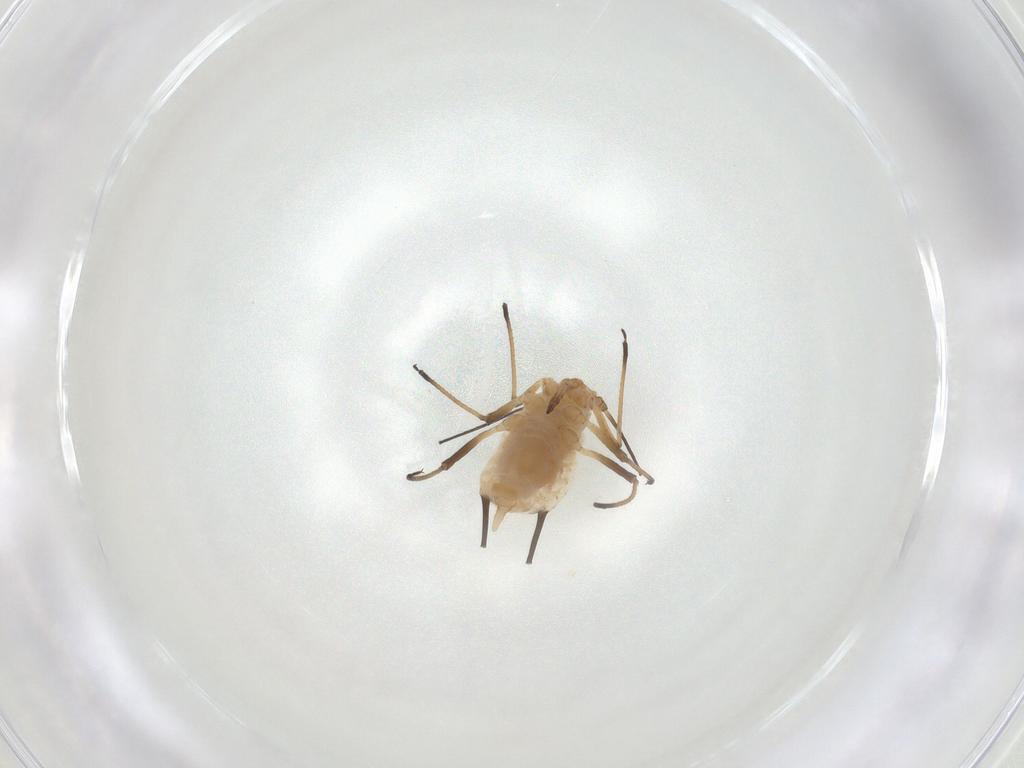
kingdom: Animalia
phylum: Arthropoda
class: Insecta
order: Hemiptera
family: Aphididae
